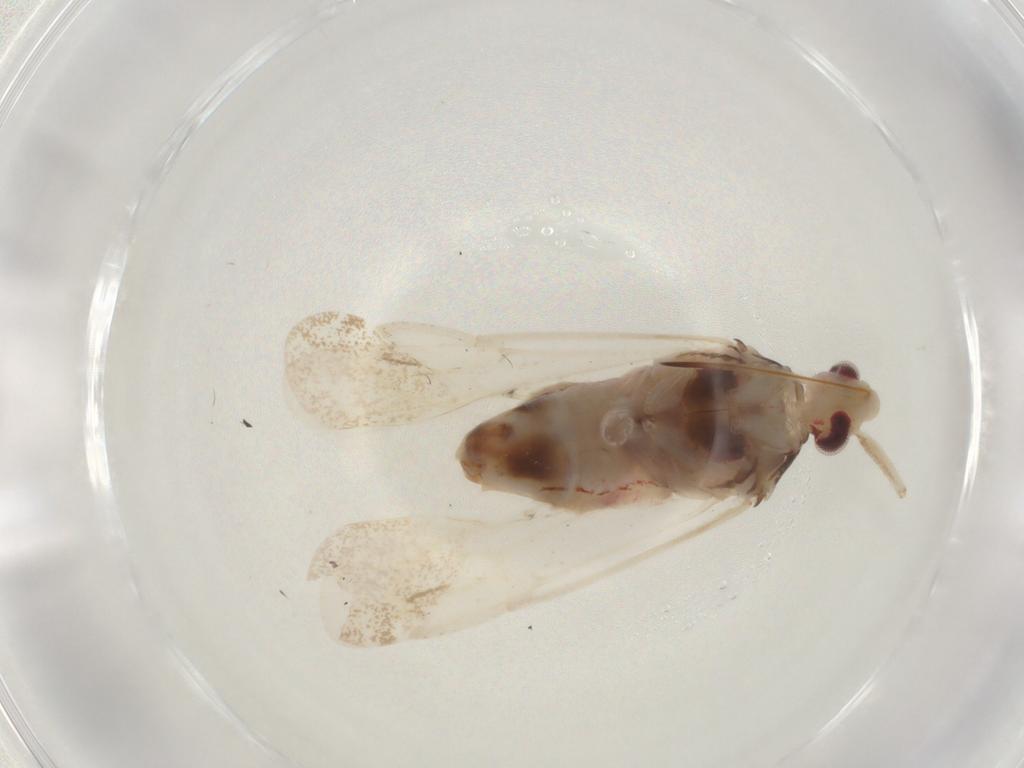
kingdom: Animalia
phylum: Arthropoda
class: Insecta
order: Hemiptera
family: Miridae
